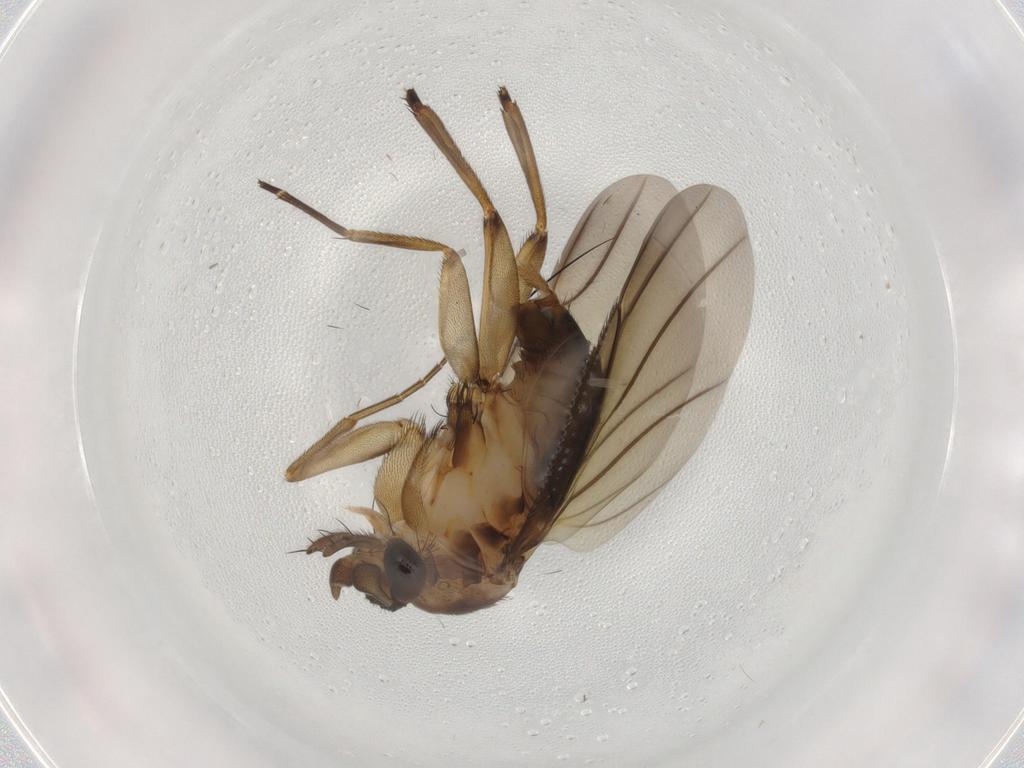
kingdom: Animalia
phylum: Arthropoda
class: Insecta
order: Diptera
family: Phoridae
